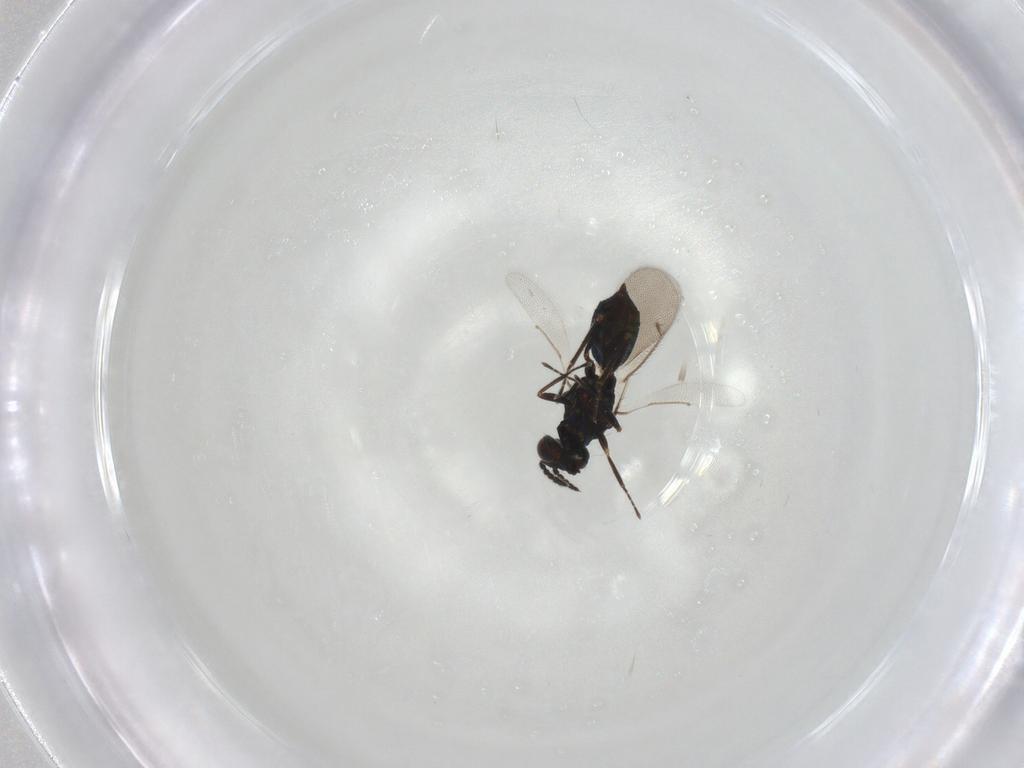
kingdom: Animalia
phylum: Arthropoda
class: Insecta
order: Hymenoptera
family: Eulophidae
